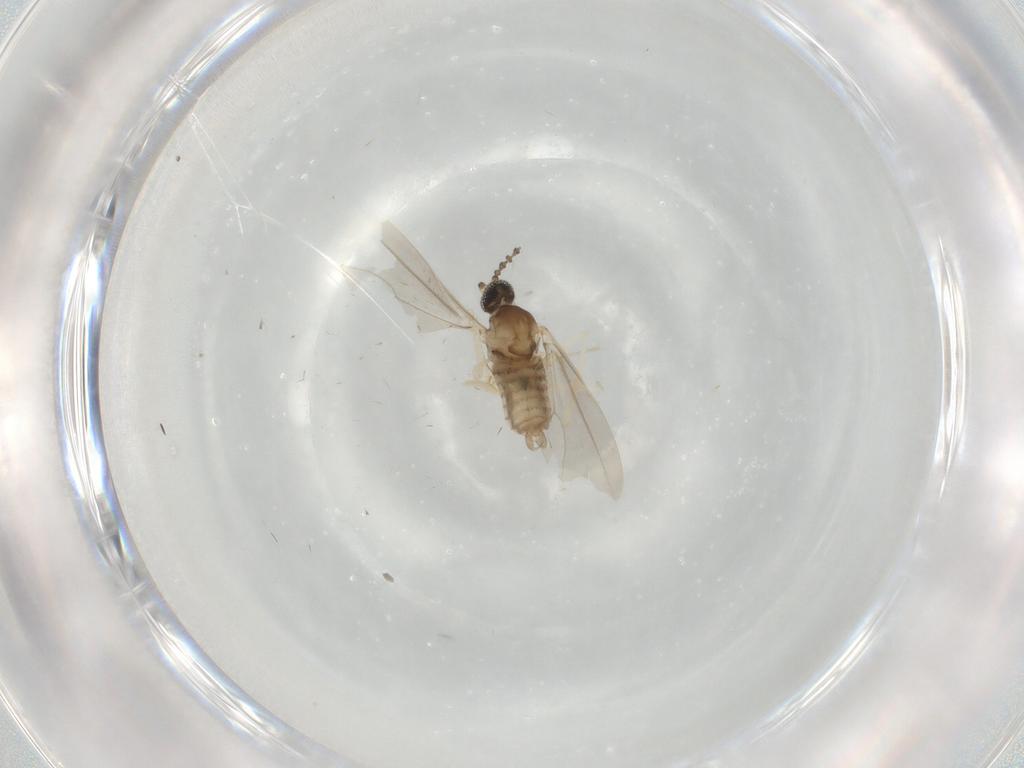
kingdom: Animalia
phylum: Arthropoda
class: Insecta
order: Diptera
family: Cecidomyiidae
